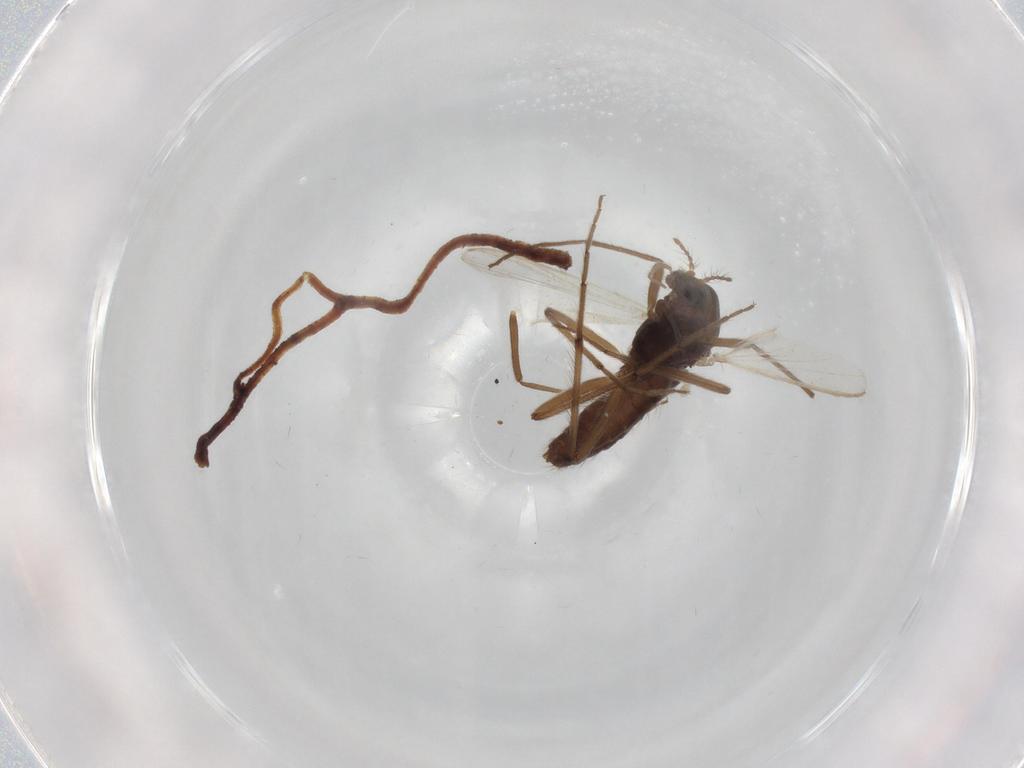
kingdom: Animalia
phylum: Arthropoda
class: Insecta
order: Diptera
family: Hybotidae
